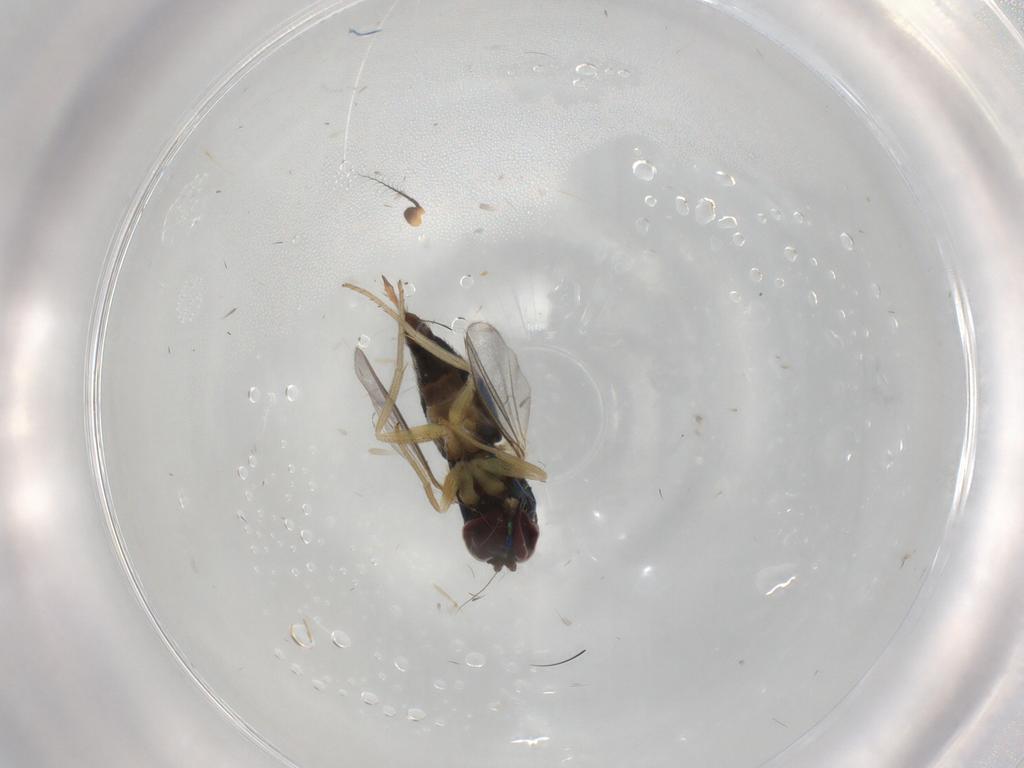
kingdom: Animalia
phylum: Arthropoda
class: Insecta
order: Diptera
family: Dolichopodidae
